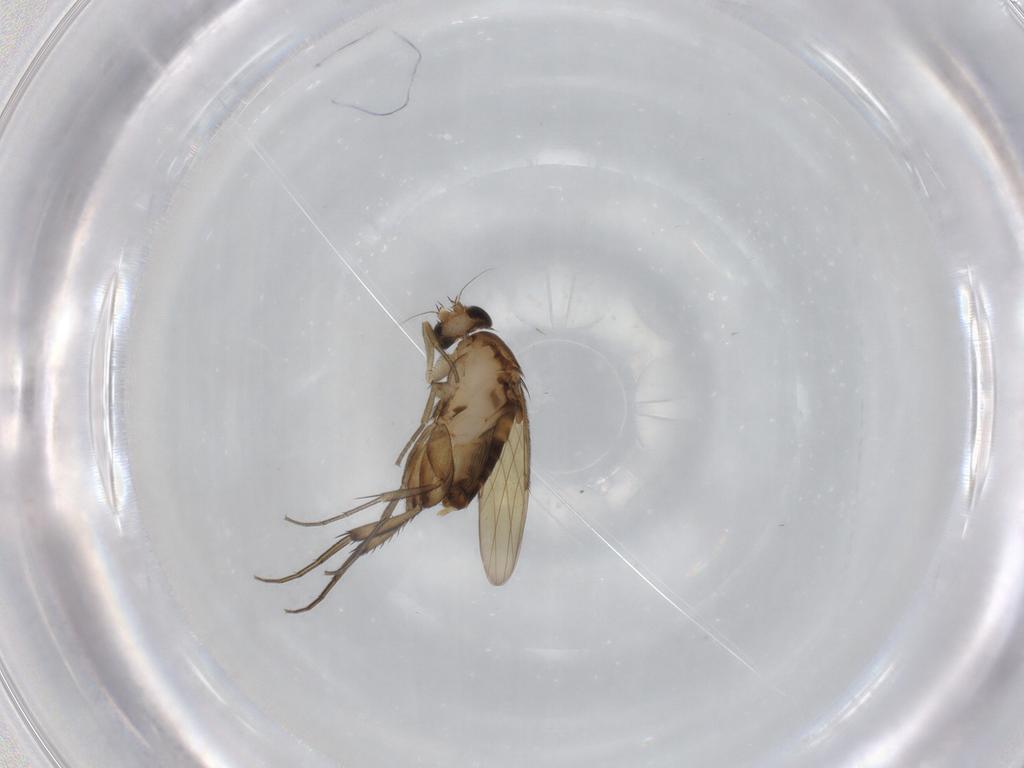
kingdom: Animalia
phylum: Arthropoda
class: Insecta
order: Diptera
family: Phoridae
